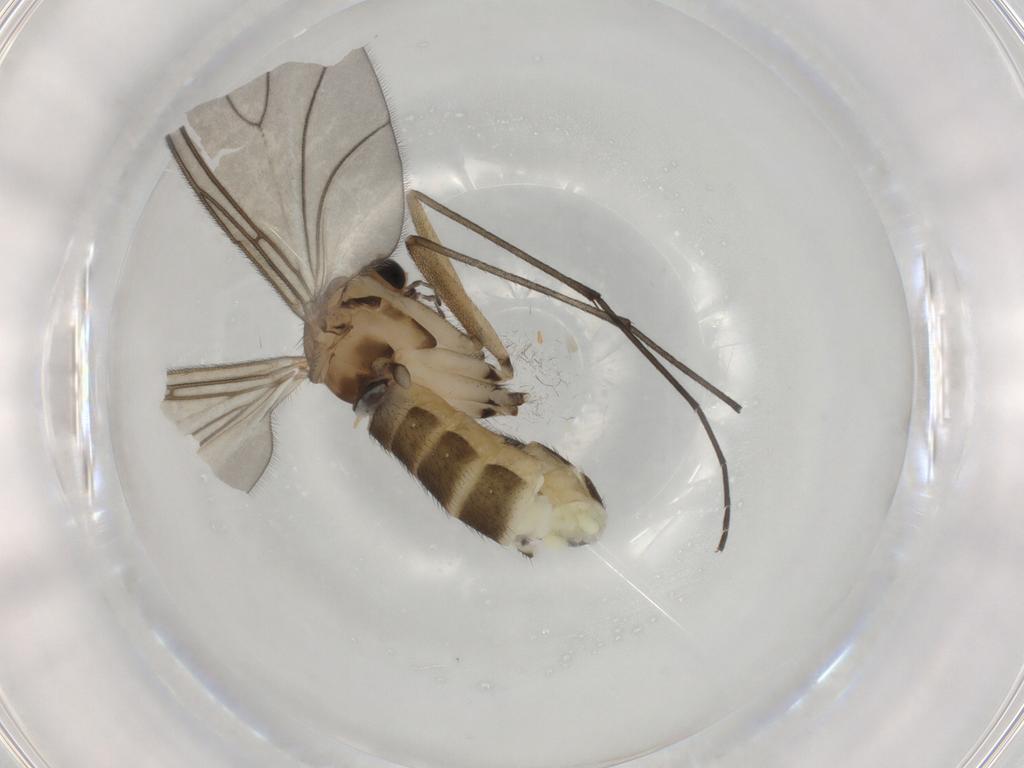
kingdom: Animalia
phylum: Arthropoda
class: Insecta
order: Diptera
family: Sciaridae
